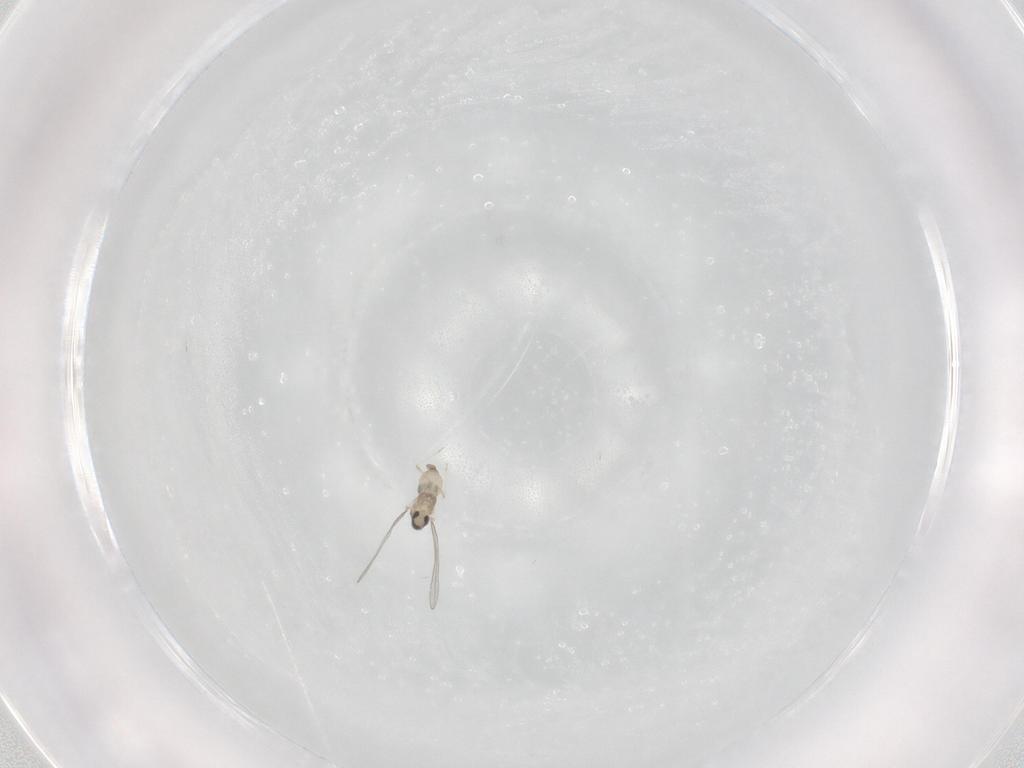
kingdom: Animalia
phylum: Arthropoda
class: Insecta
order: Diptera
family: Cecidomyiidae
